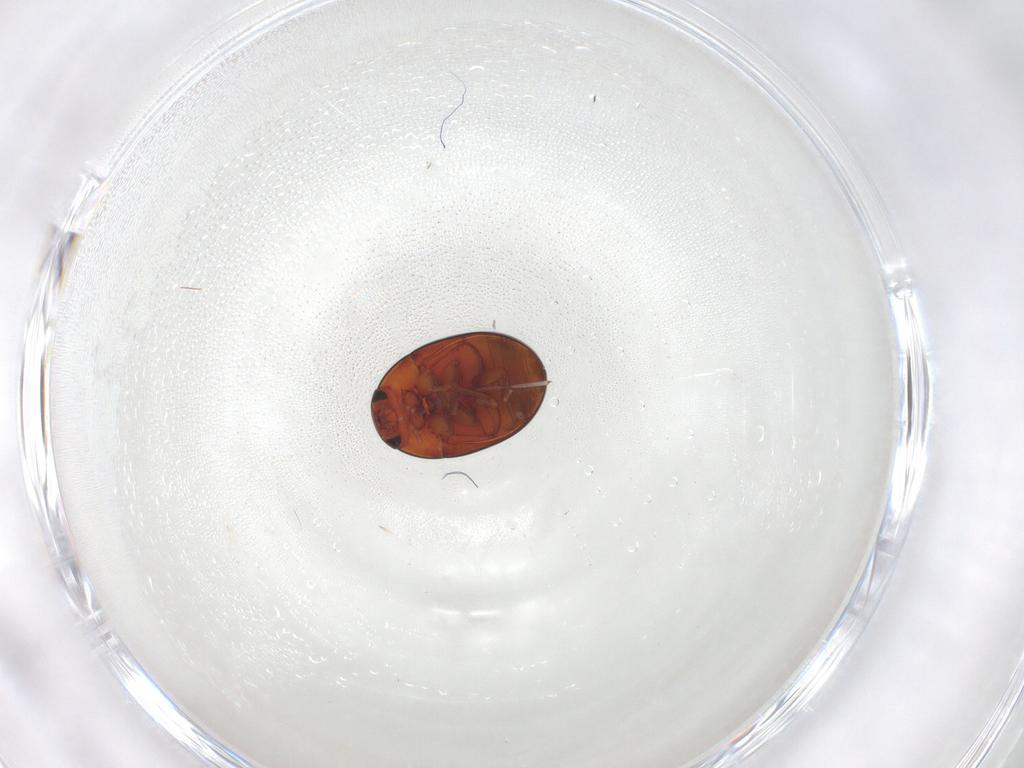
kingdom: Animalia
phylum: Arthropoda
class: Insecta
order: Coleoptera
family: Phalacridae
